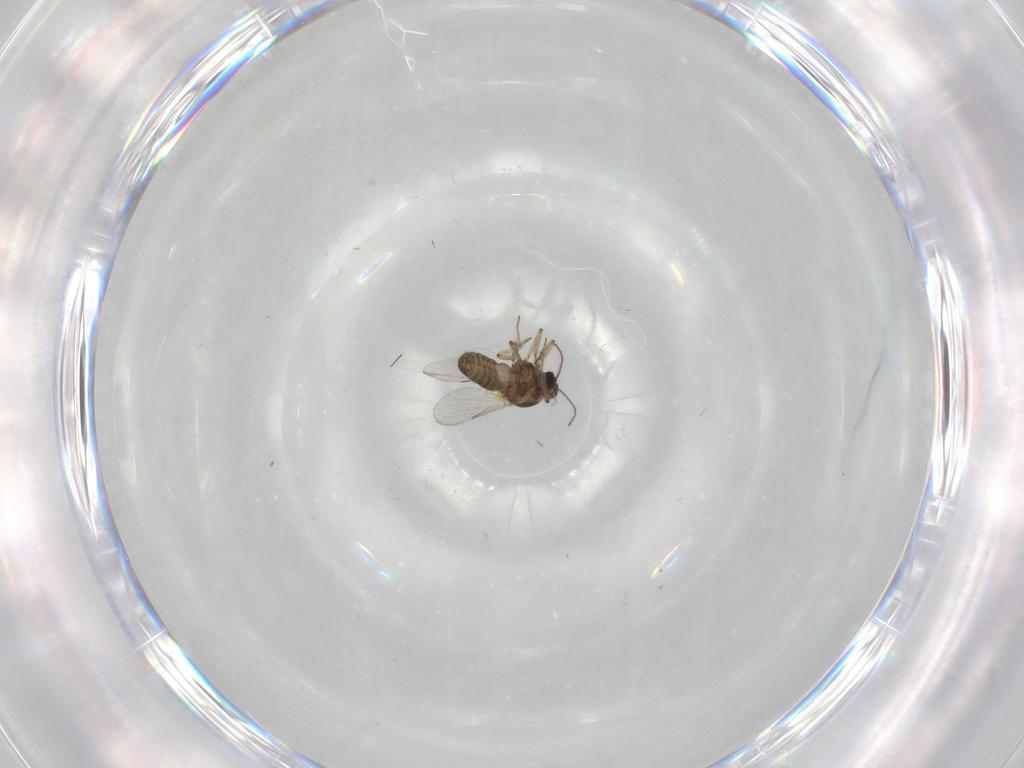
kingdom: Animalia
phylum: Arthropoda
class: Insecta
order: Diptera
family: Ceratopogonidae
